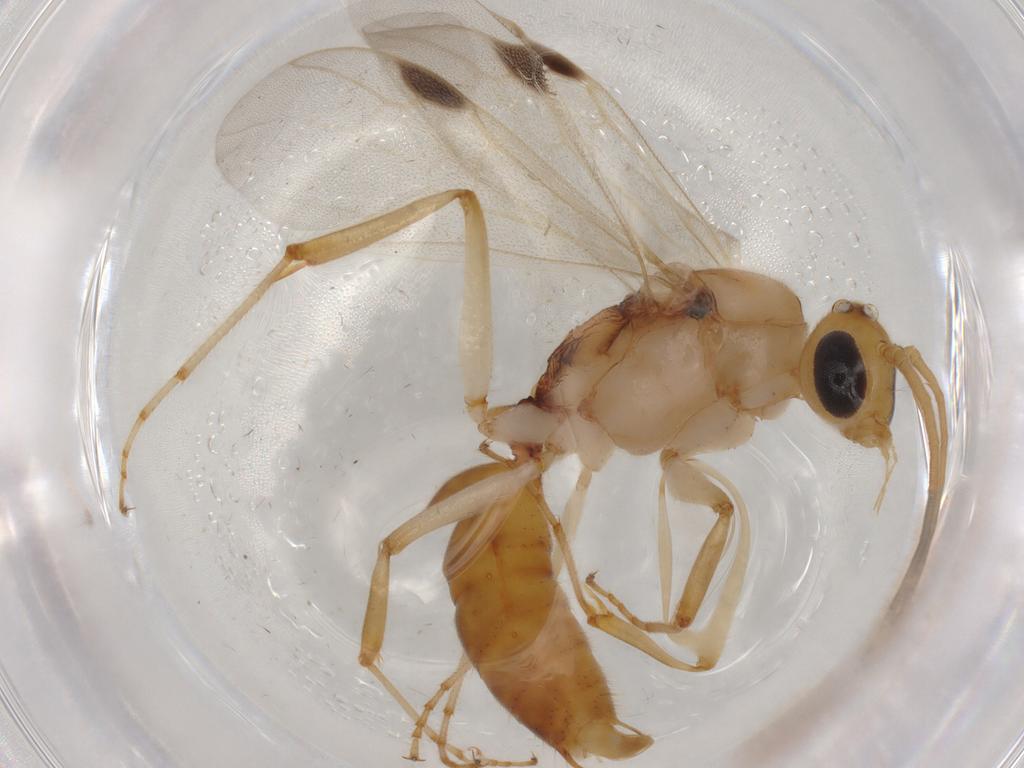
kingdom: Animalia
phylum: Arthropoda
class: Insecta
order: Hymenoptera
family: Formicidae
